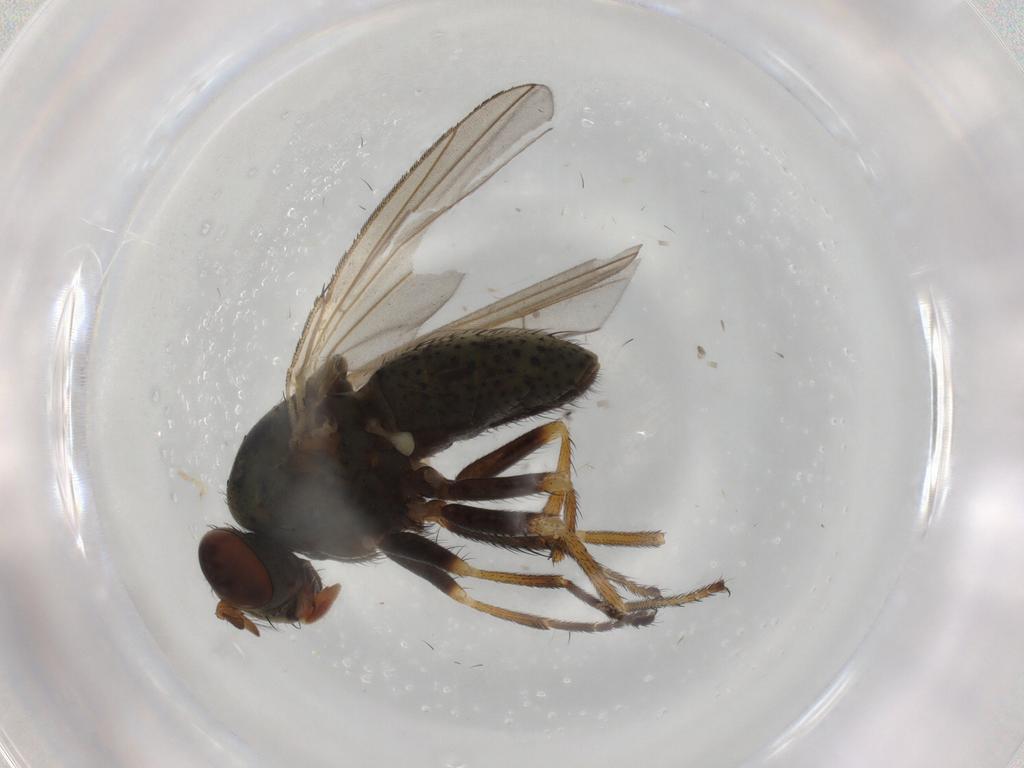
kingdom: Animalia
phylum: Arthropoda
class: Insecta
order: Diptera
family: Ephydridae
